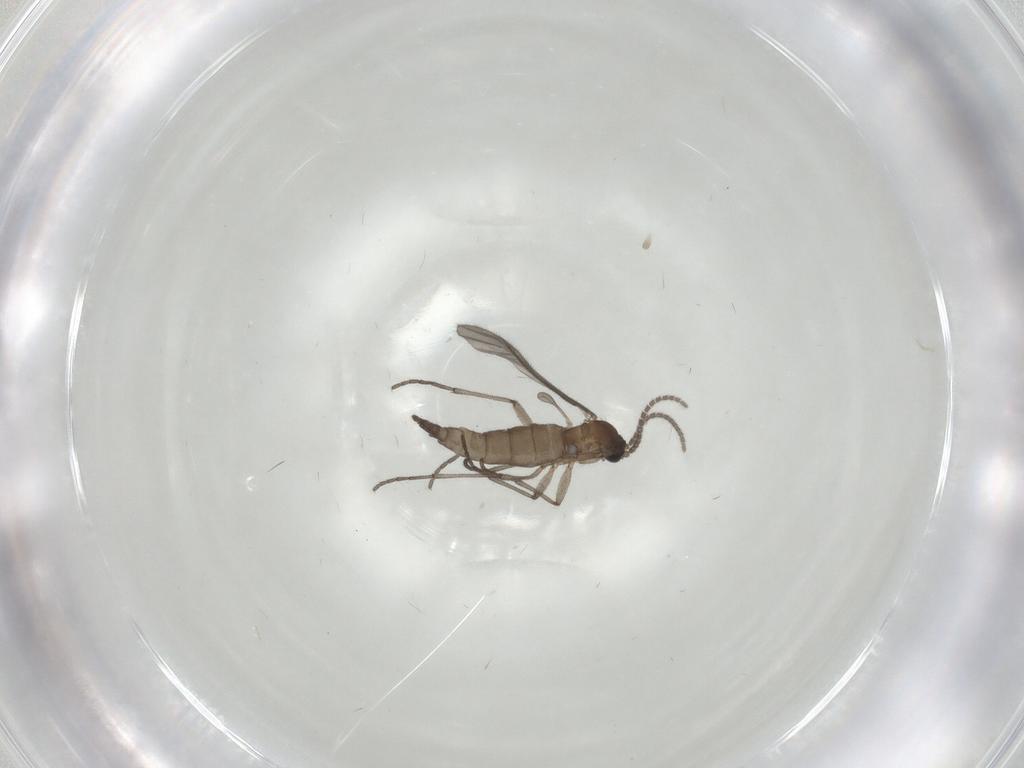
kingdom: Animalia
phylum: Arthropoda
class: Insecta
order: Diptera
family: Sciaridae
